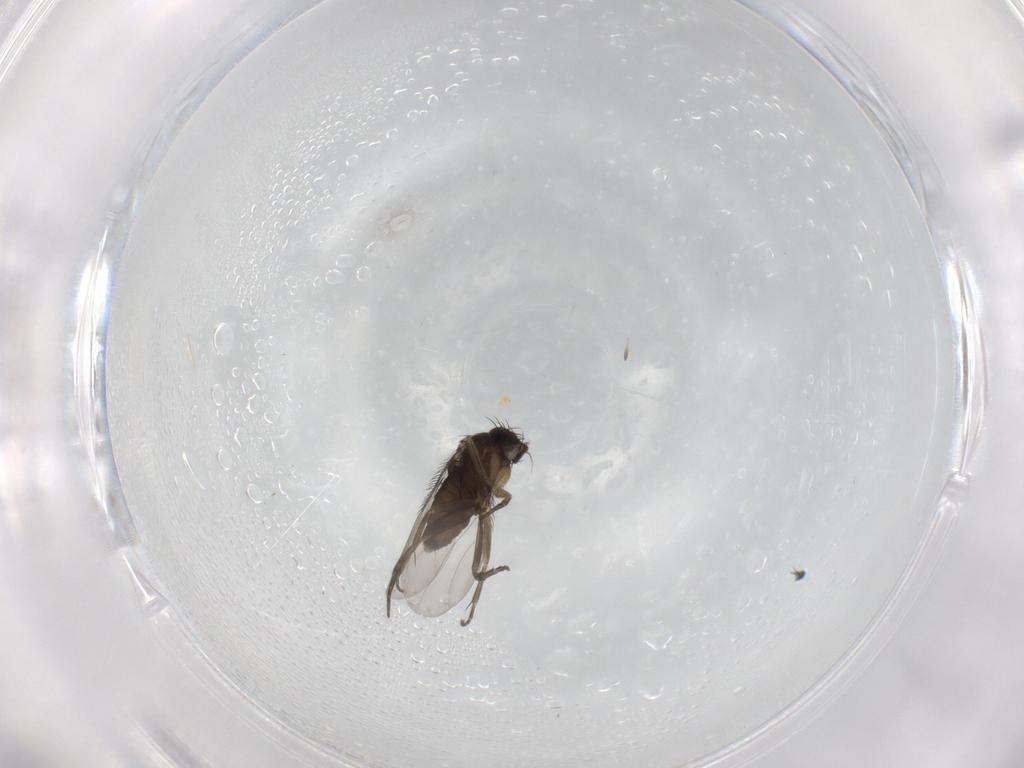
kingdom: Animalia
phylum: Arthropoda
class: Insecta
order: Diptera
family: Phoridae
